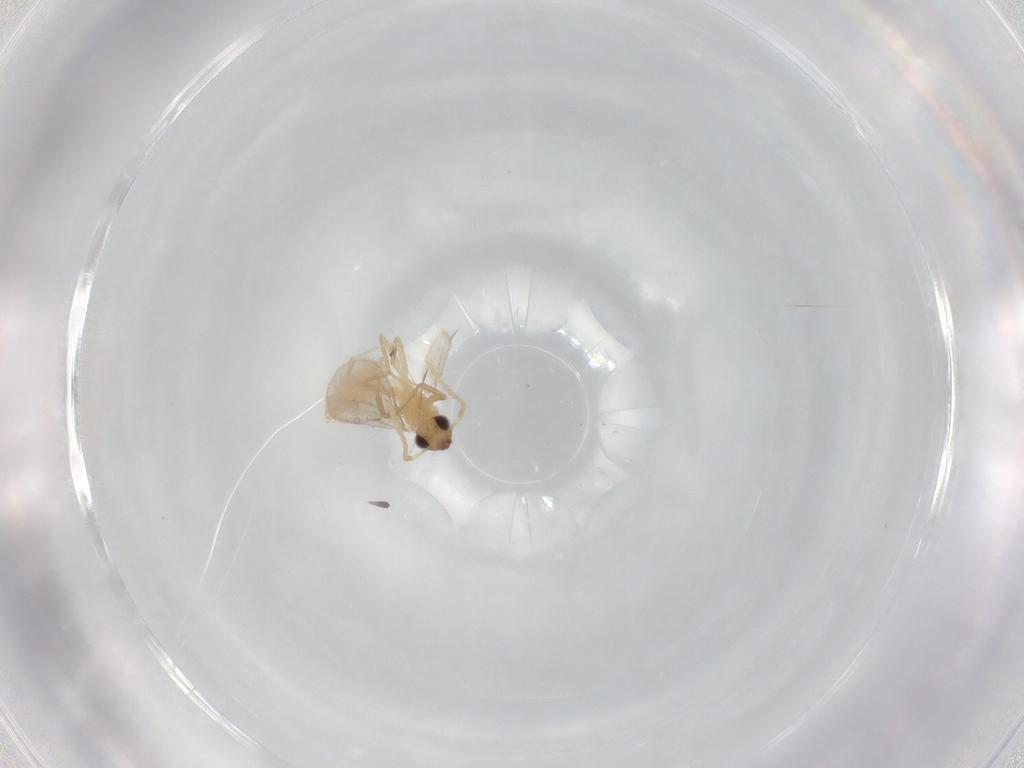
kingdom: Animalia
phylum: Arthropoda
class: Insecta
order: Hymenoptera
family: Formicidae
